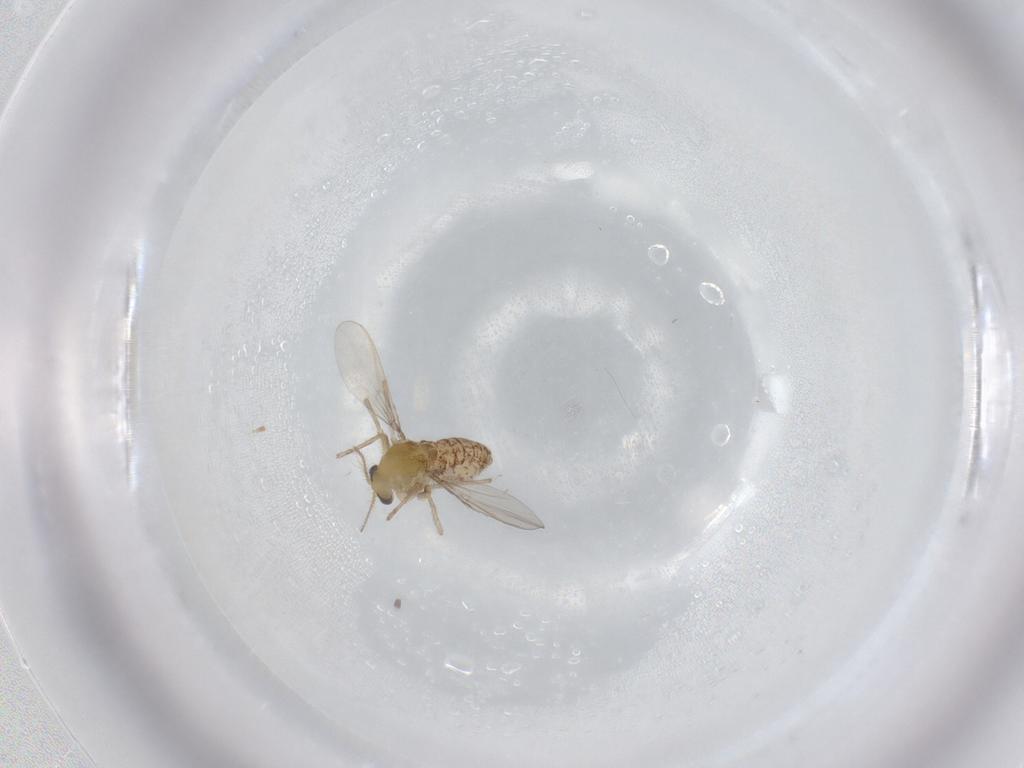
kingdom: Animalia
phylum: Arthropoda
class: Insecta
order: Diptera
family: Chironomidae
